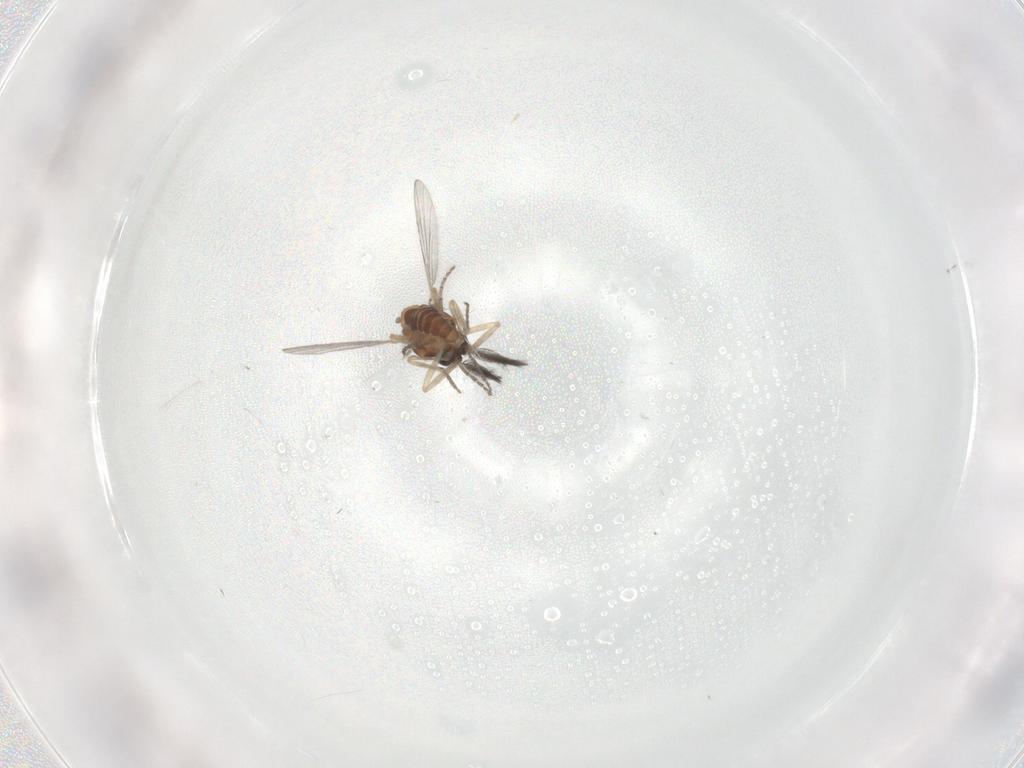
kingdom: Animalia
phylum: Arthropoda
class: Insecta
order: Diptera
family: Ceratopogonidae
